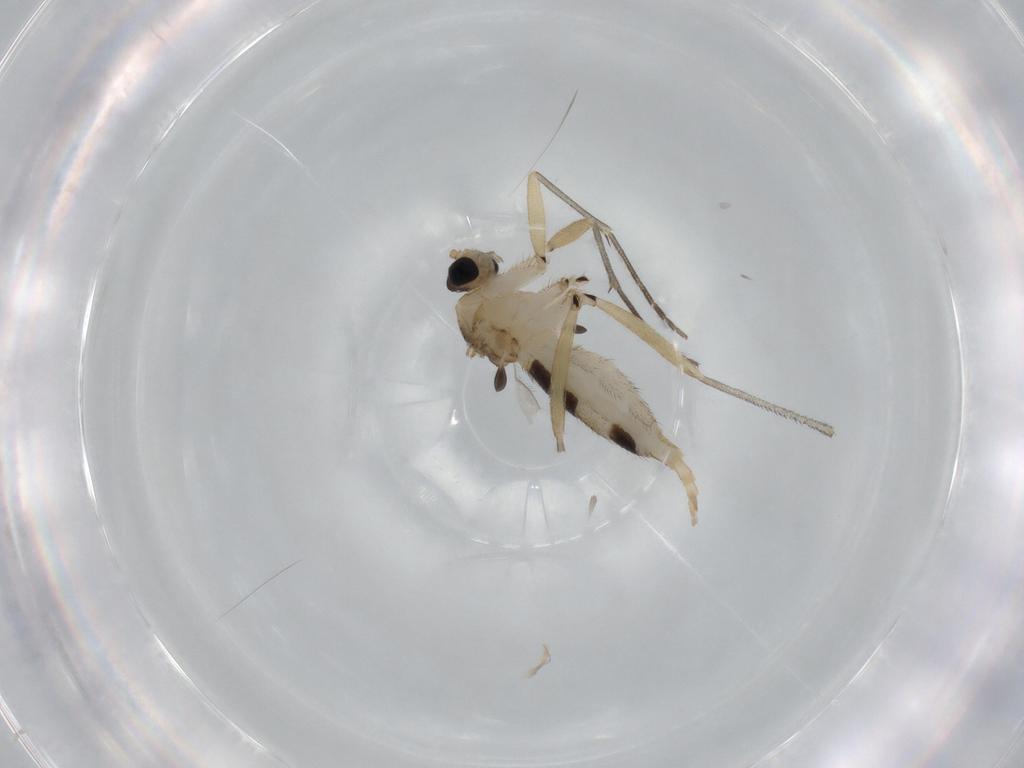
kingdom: Animalia
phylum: Arthropoda
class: Insecta
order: Diptera
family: Sciaridae
